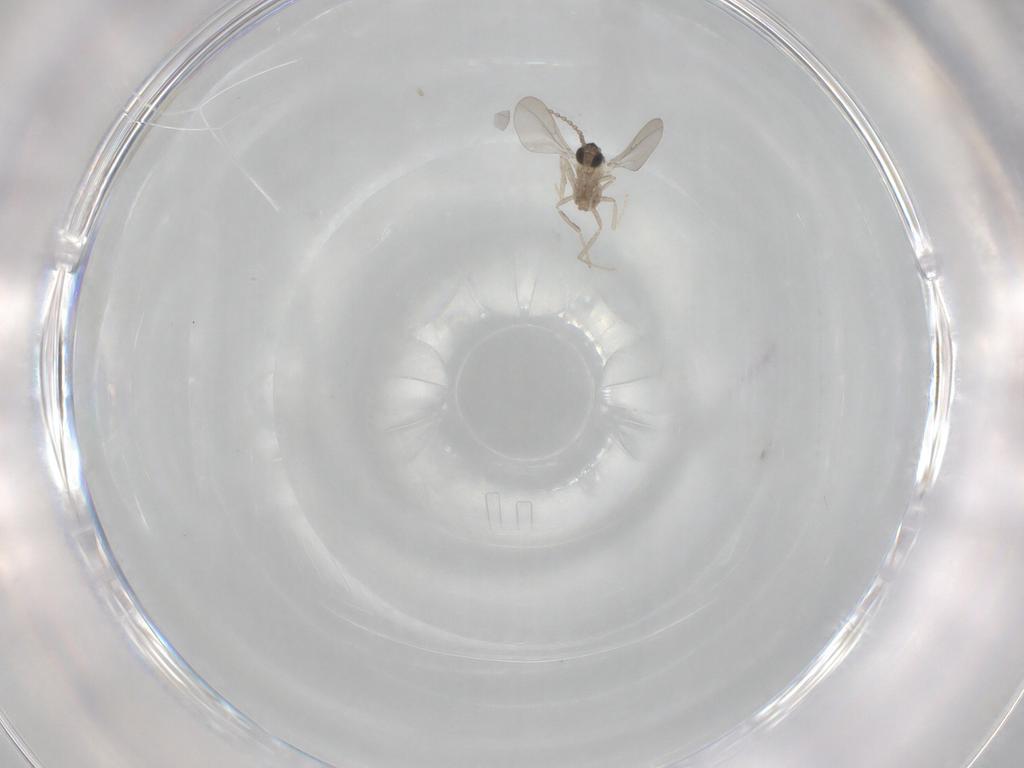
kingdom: Animalia
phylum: Arthropoda
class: Insecta
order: Diptera
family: Cecidomyiidae
